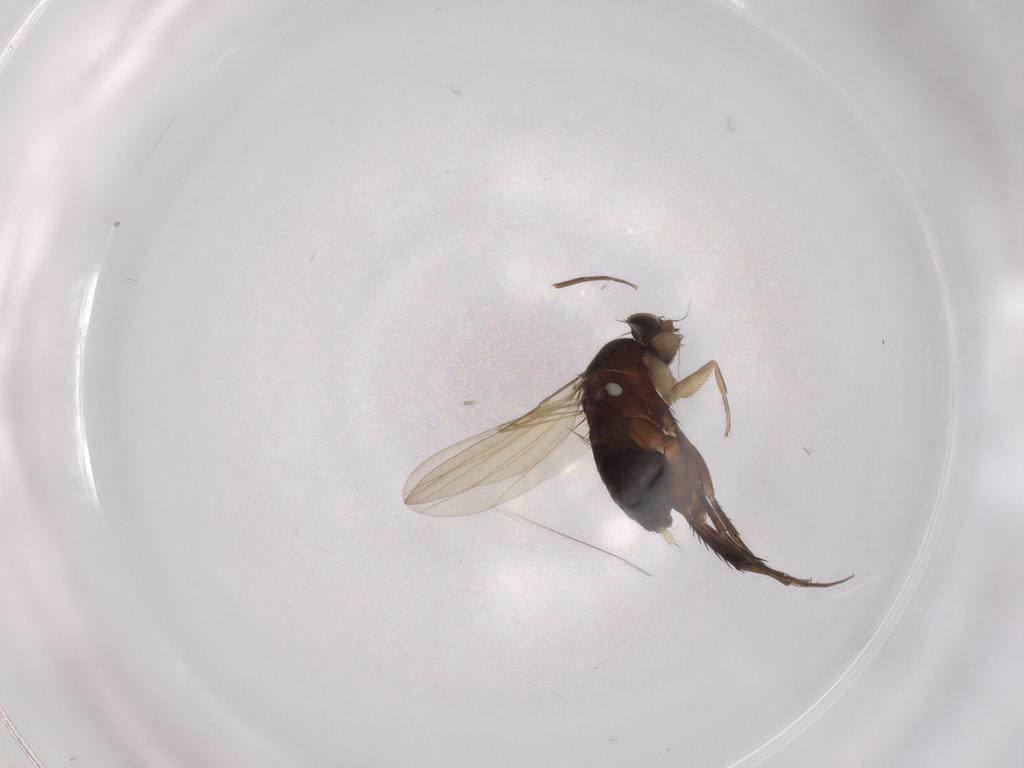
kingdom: Animalia
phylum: Arthropoda
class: Insecta
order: Diptera
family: Phoridae
